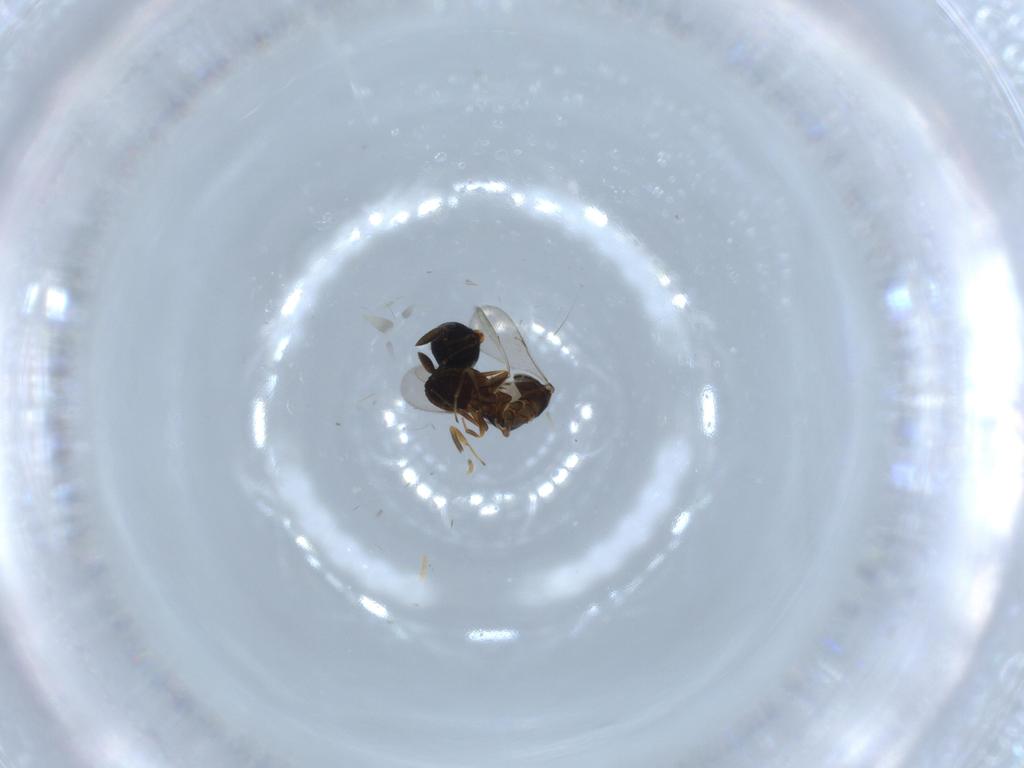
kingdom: Animalia
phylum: Arthropoda
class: Insecta
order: Hymenoptera
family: Scelionidae
